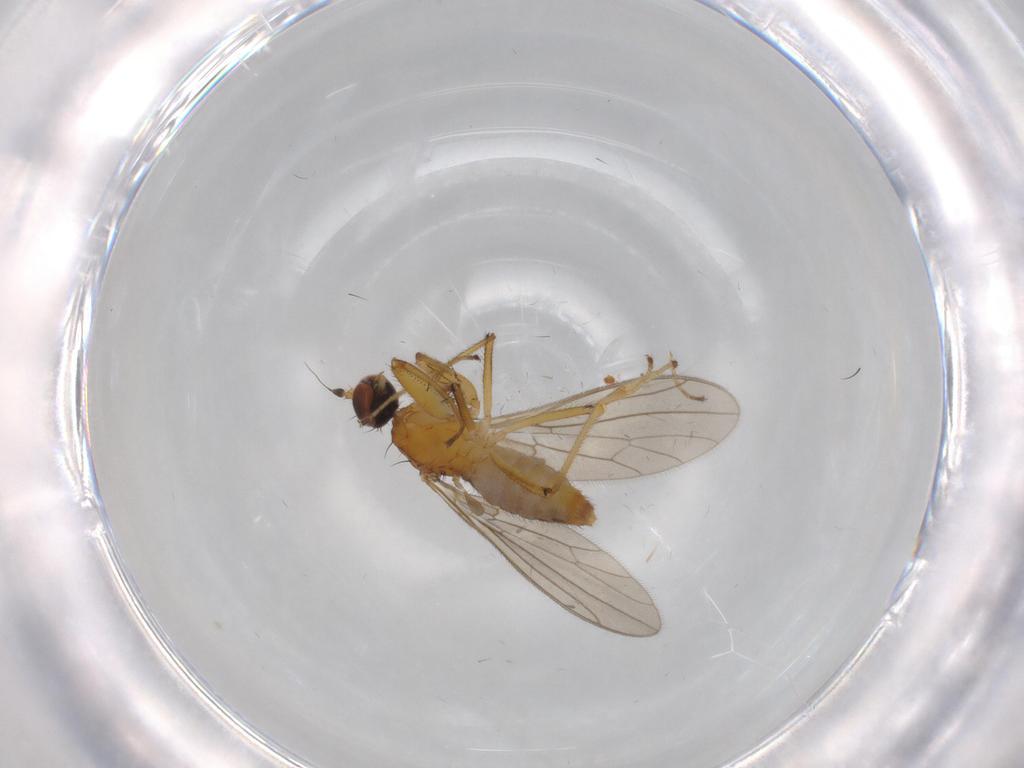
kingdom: Animalia
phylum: Arthropoda
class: Insecta
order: Diptera
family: Empididae
